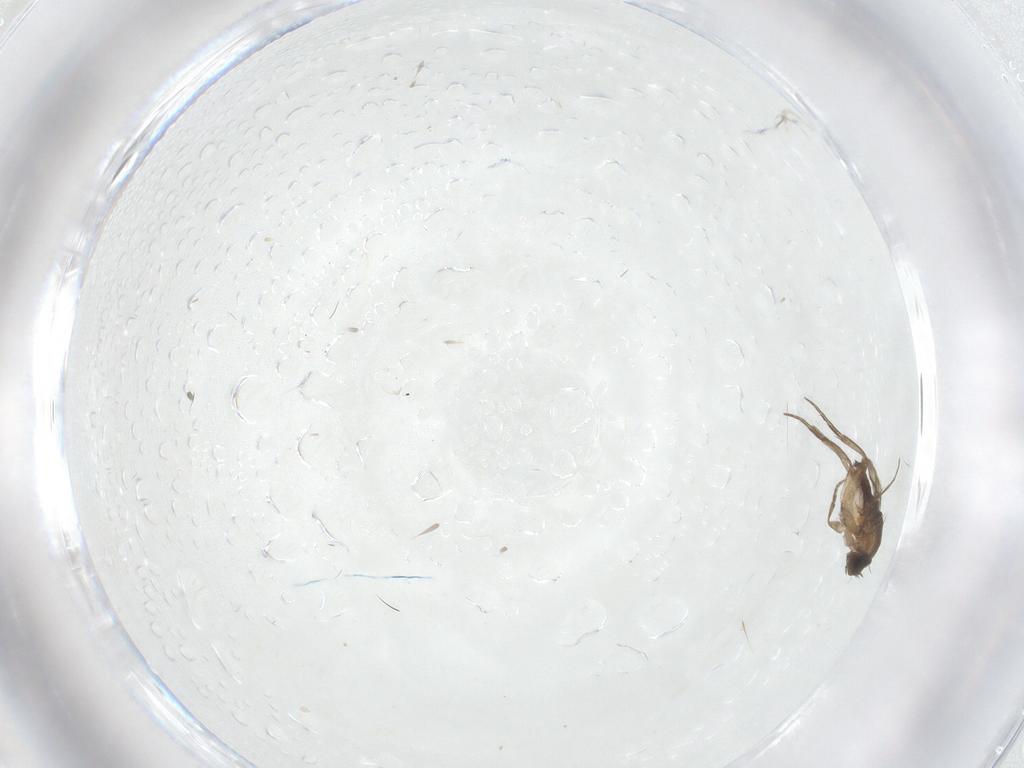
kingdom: Animalia
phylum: Arthropoda
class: Insecta
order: Diptera
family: Phoridae
